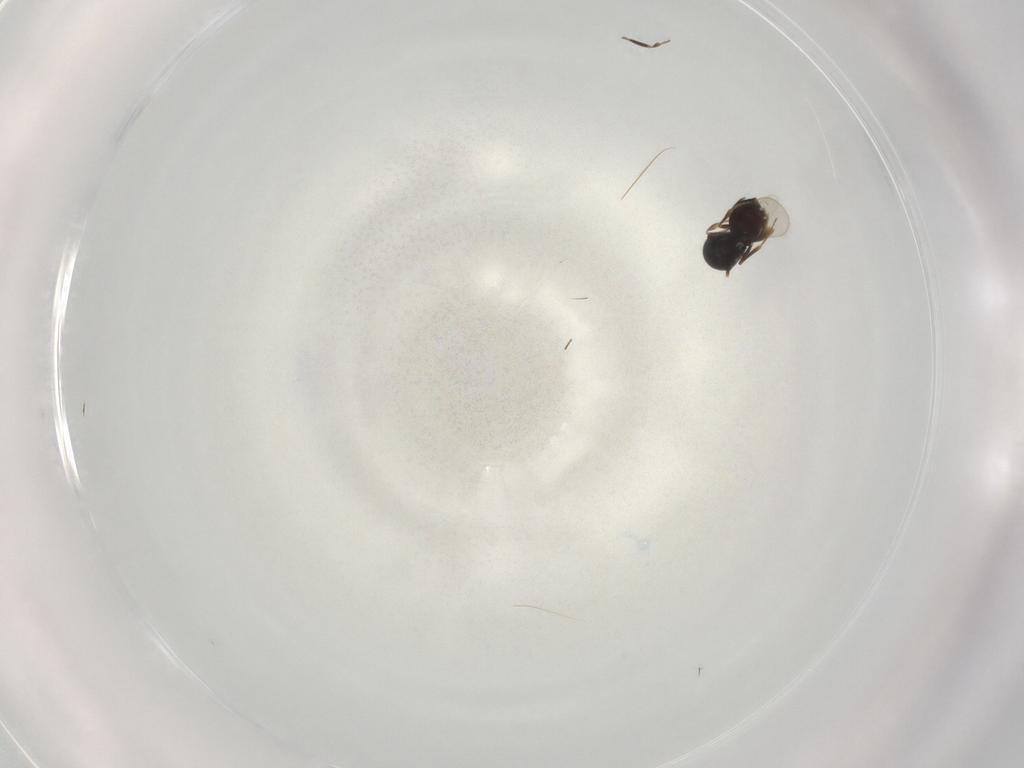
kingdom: Animalia
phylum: Arthropoda
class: Insecta
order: Hymenoptera
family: Scelionidae
